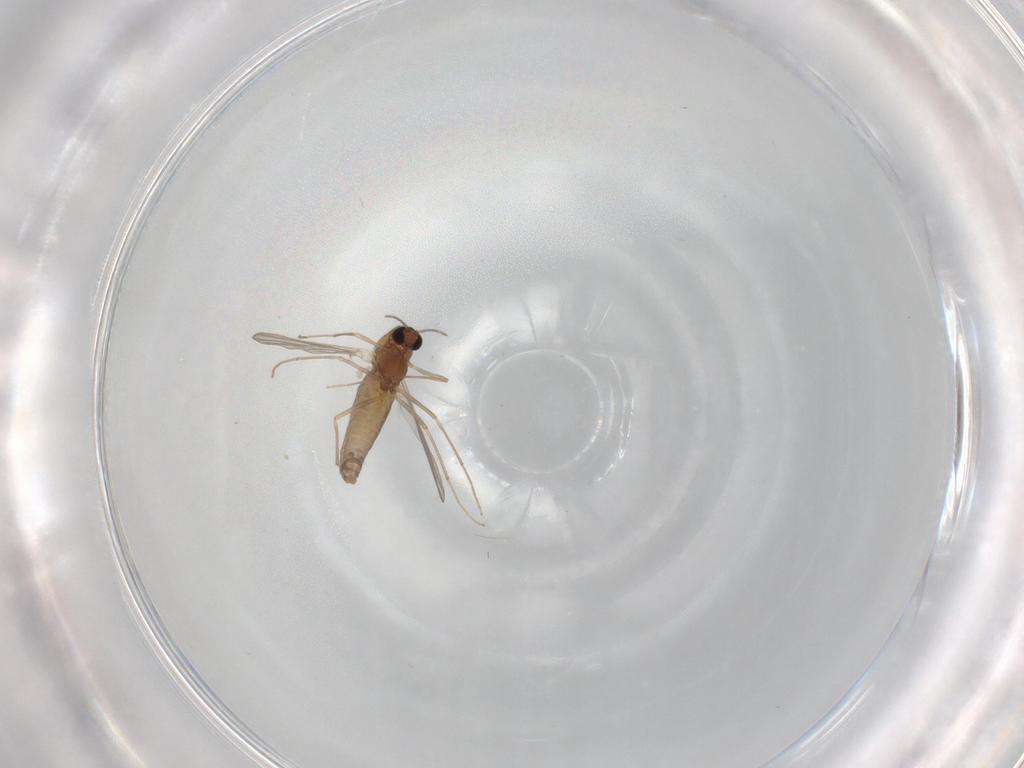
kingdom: Animalia
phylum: Arthropoda
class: Insecta
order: Diptera
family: Chironomidae
